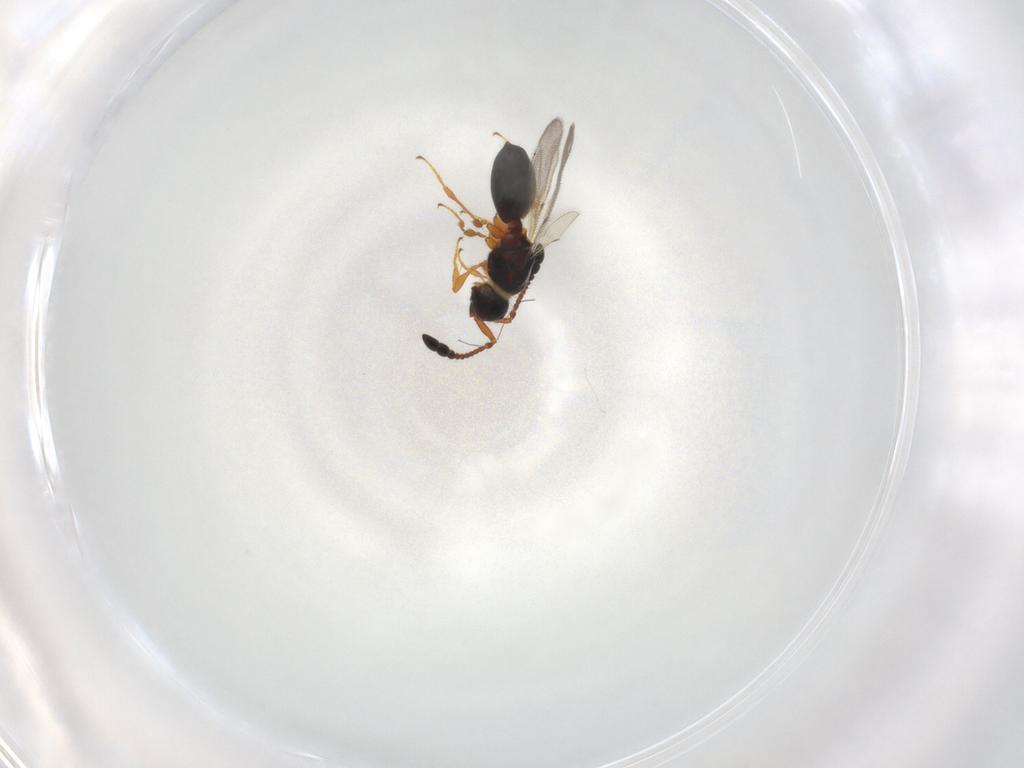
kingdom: Animalia
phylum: Arthropoda
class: Insecta
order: Hymenoptera
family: Diapriidae
